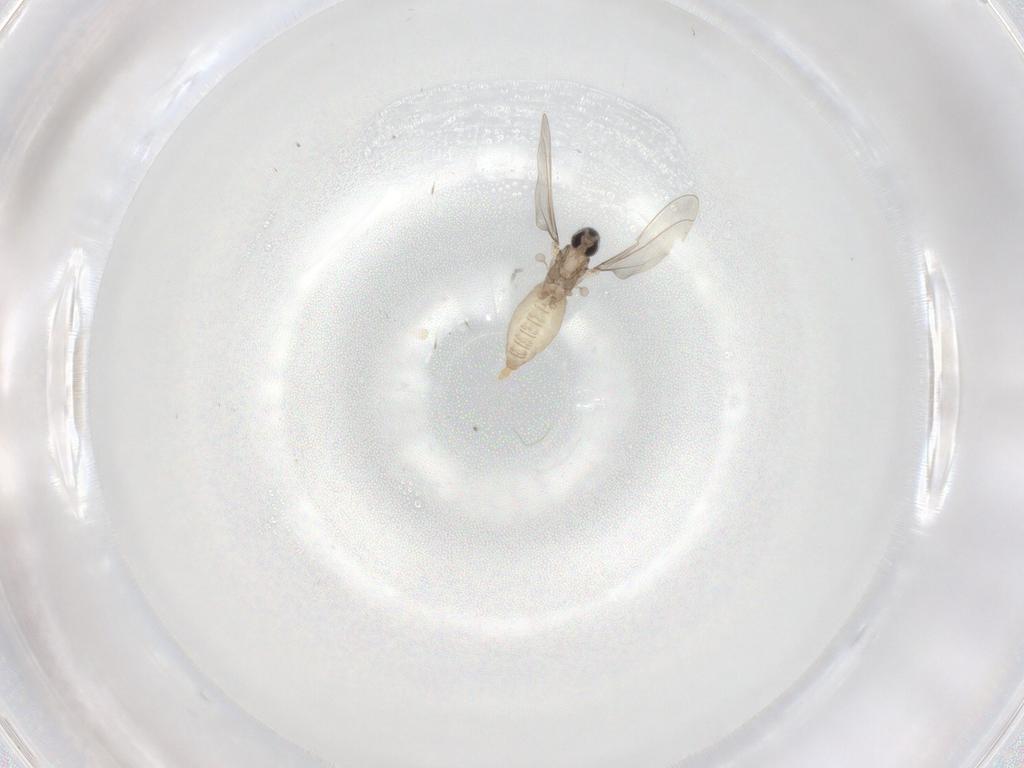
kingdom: Animalia
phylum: Arthropoda
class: Insecta
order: Diptera
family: Cecidomyiidae
